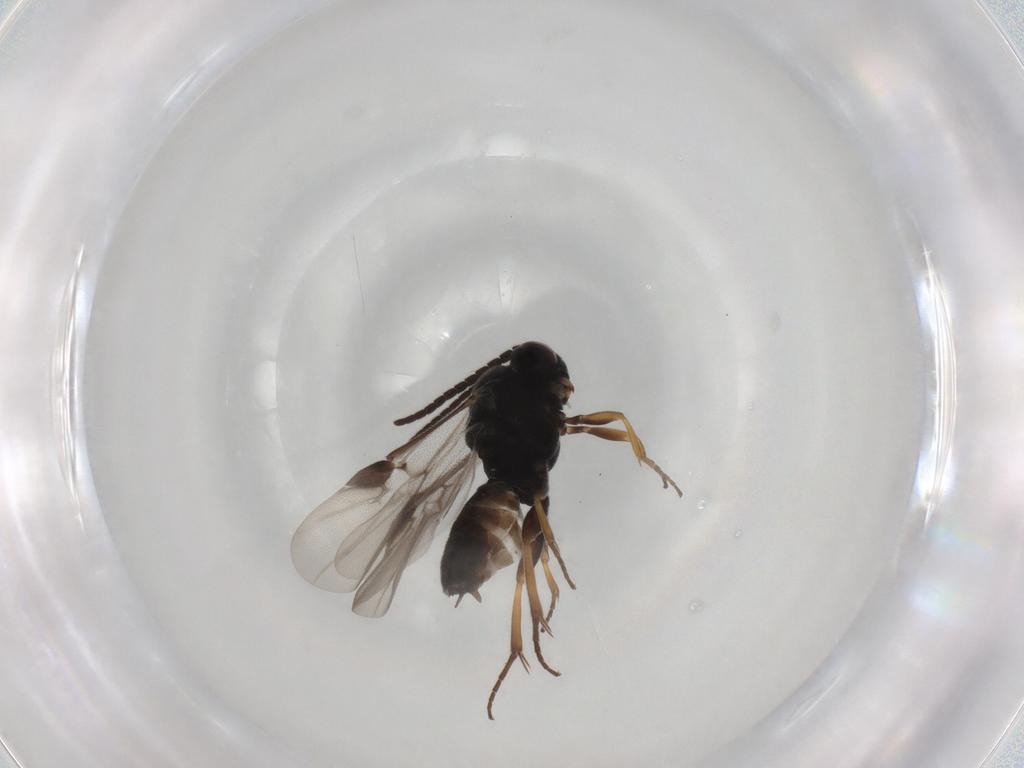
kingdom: Animalia
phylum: Arthropoda
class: Insecta
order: Hymenoptera
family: Braconidae
